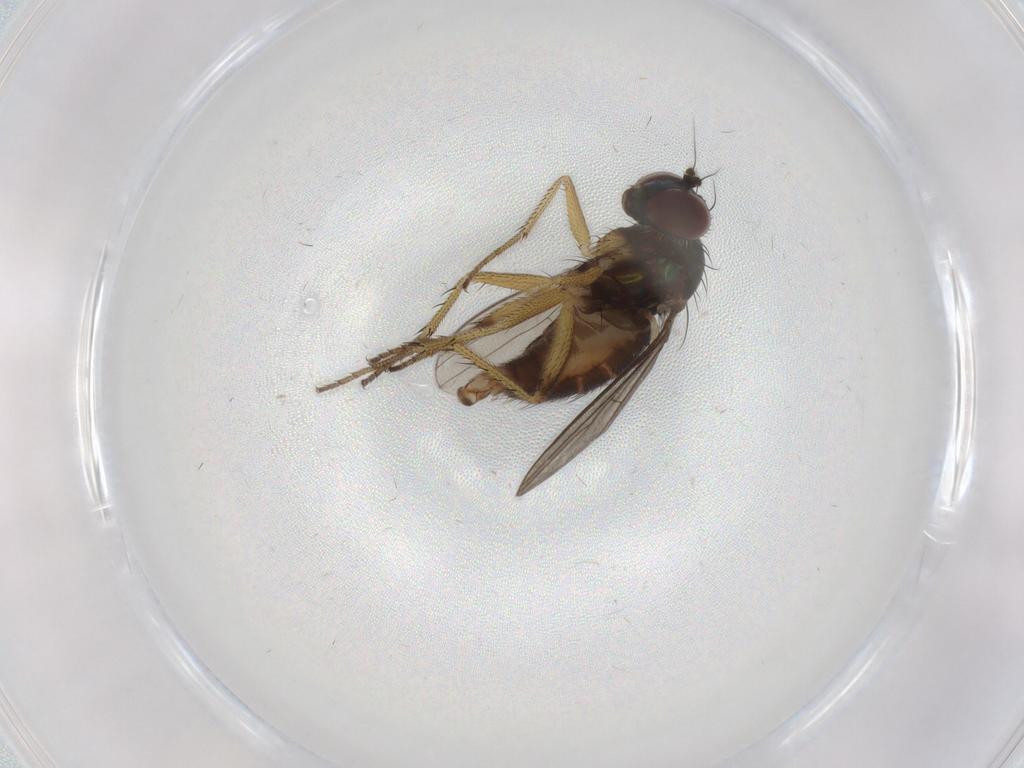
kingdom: Animalia
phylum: Arthropoda
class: Insecta
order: Diptera
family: Dolichopodidae
